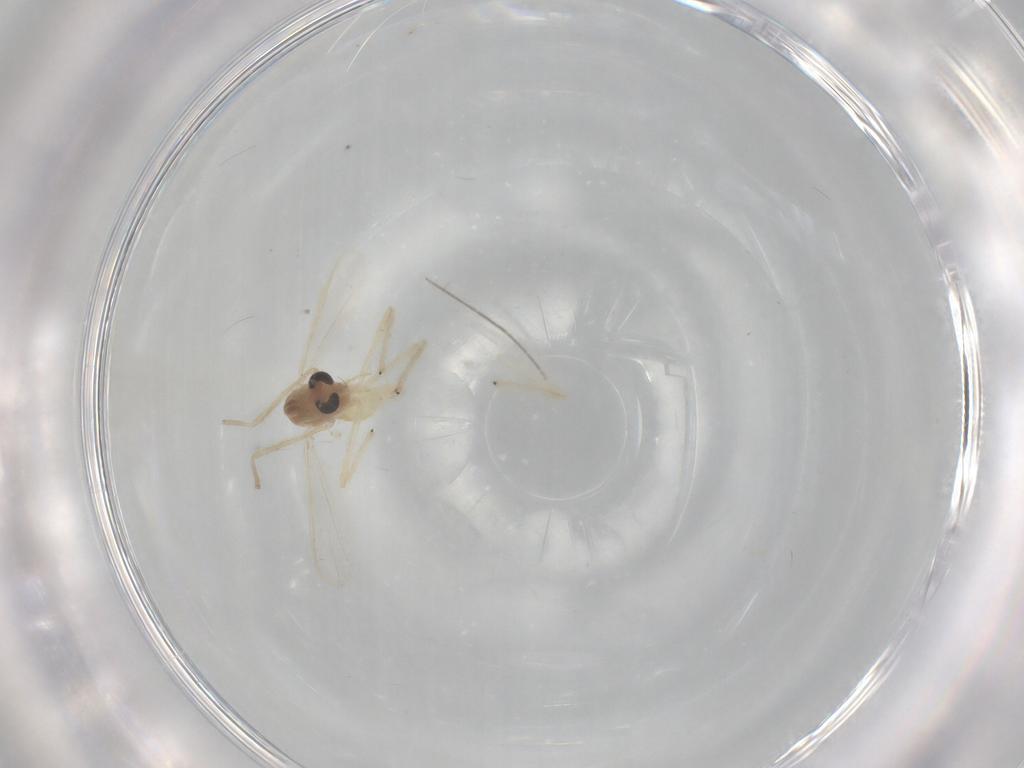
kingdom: Animalia
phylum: Arthropoda
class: Insecta
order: Diptera
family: Chironomidae
